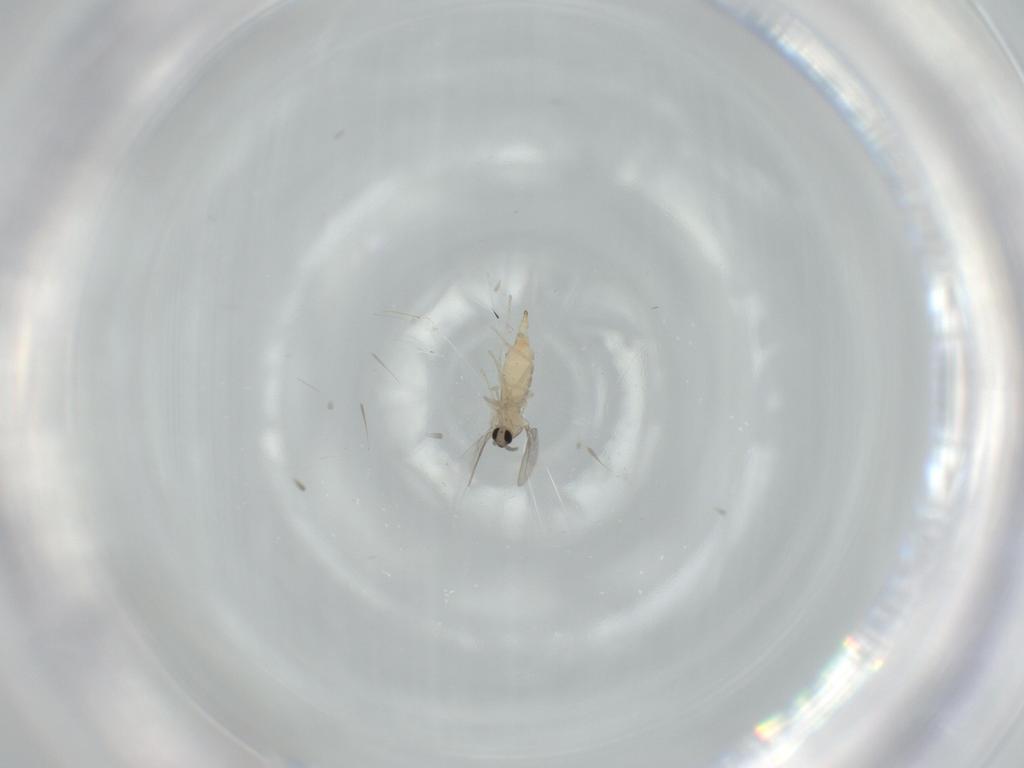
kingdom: Animalia
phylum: Arthropoda
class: Insecta
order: Diptera
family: Cecidomyiidae
